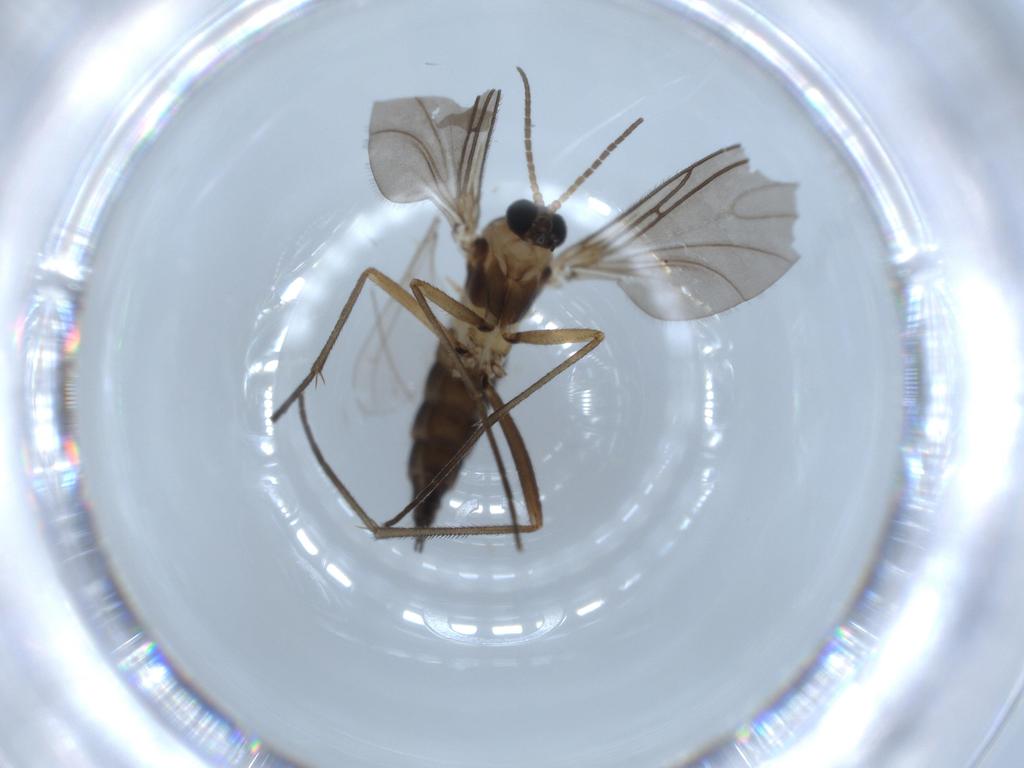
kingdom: Animalia
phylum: Arthropoda
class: Insecta
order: Diptera
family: Sciaridae
